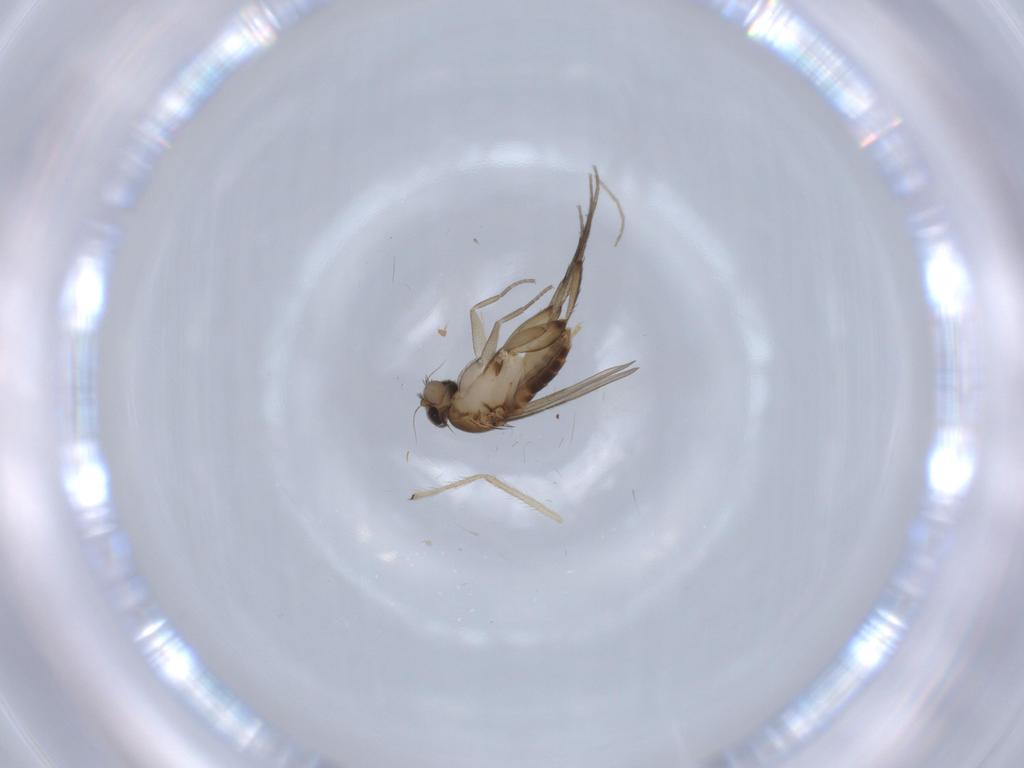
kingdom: Animalia
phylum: Arthropoda
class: Insecta
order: Diptera
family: Phoridae
